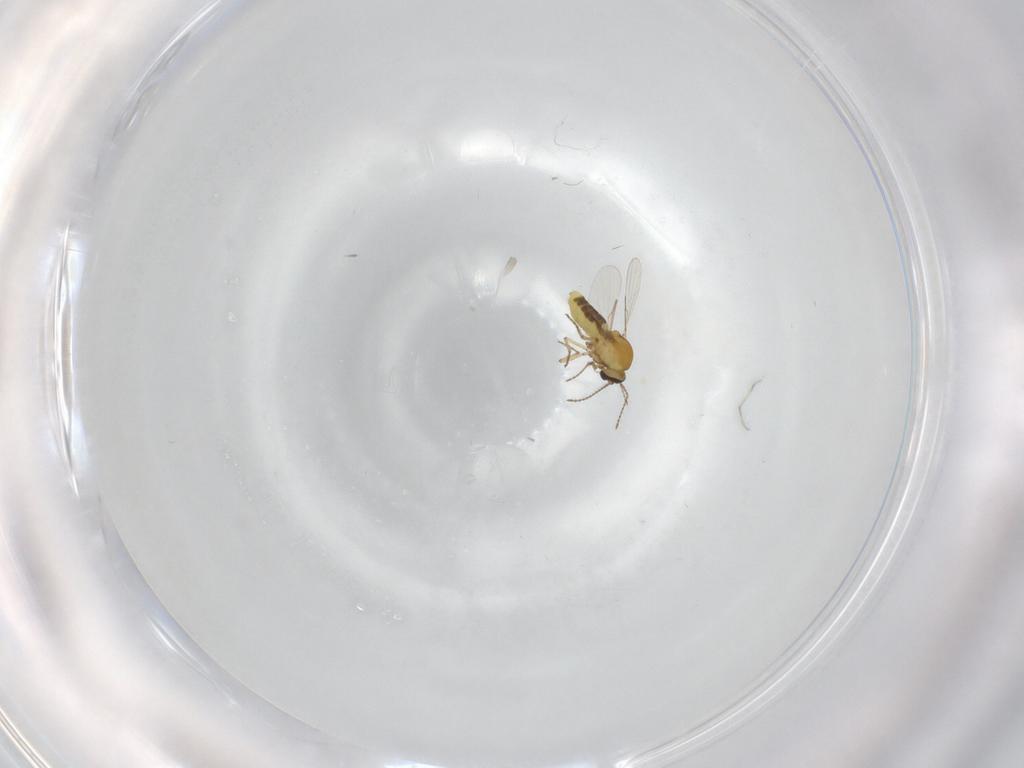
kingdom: Animalia
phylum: Arthropoda
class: Insecta
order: Diptera
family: Ceratopogonidae
